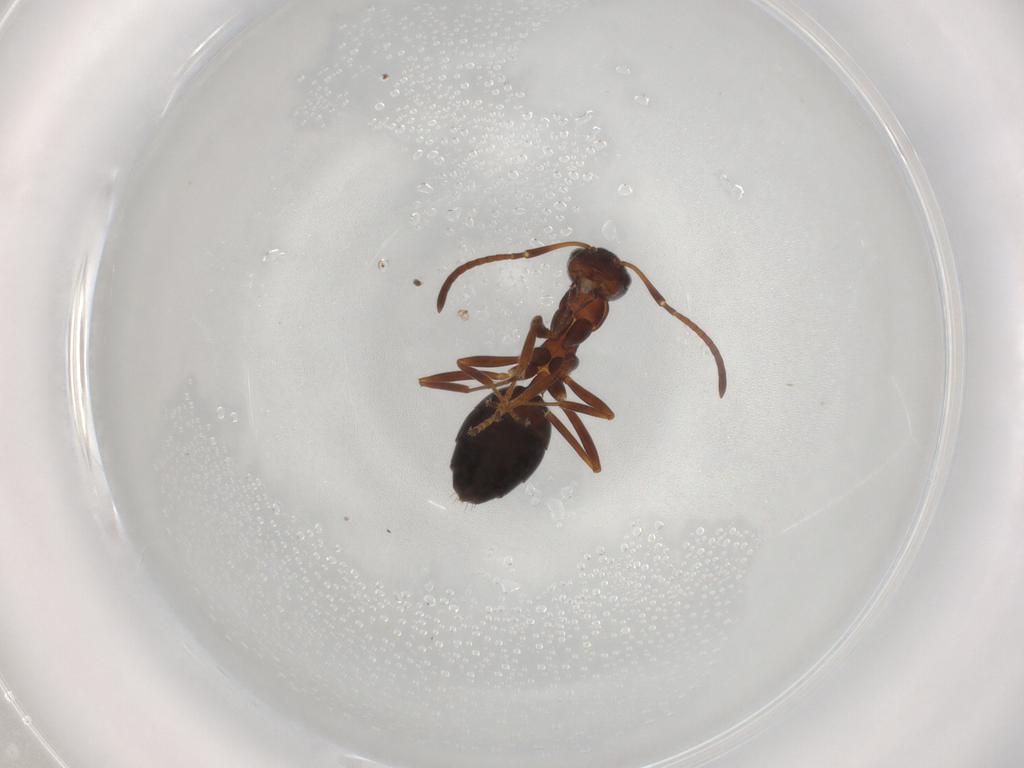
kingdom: Animalia
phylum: Arthropoda
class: Insecta
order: Hymenoptera
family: Formicidae
